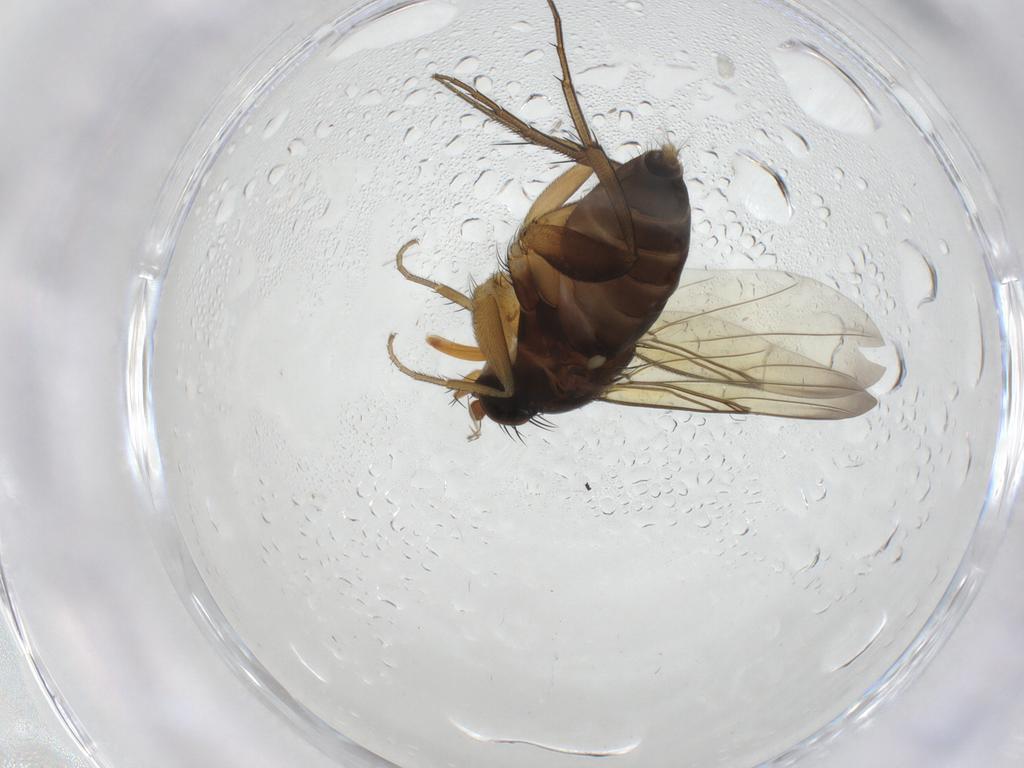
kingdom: Animalia
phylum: Arthropoda
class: Insecta
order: Diptera
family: Phoridae
